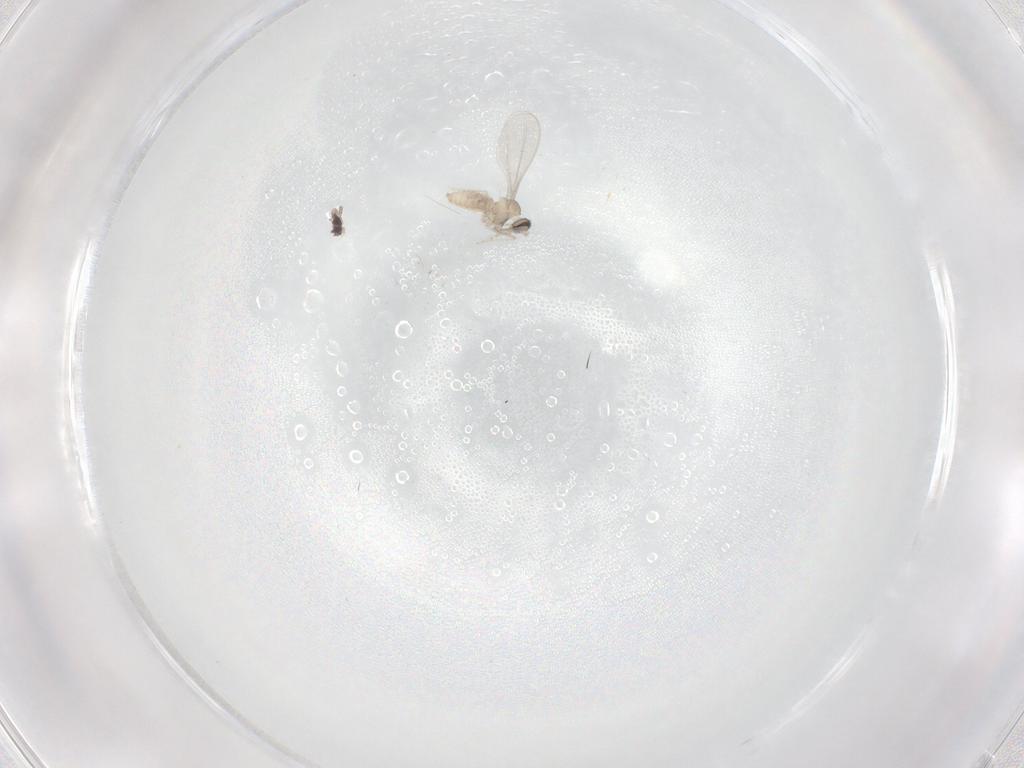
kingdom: Animalia
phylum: Arthropoda
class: Insecta
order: Diptera
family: Cecidomyiidae
